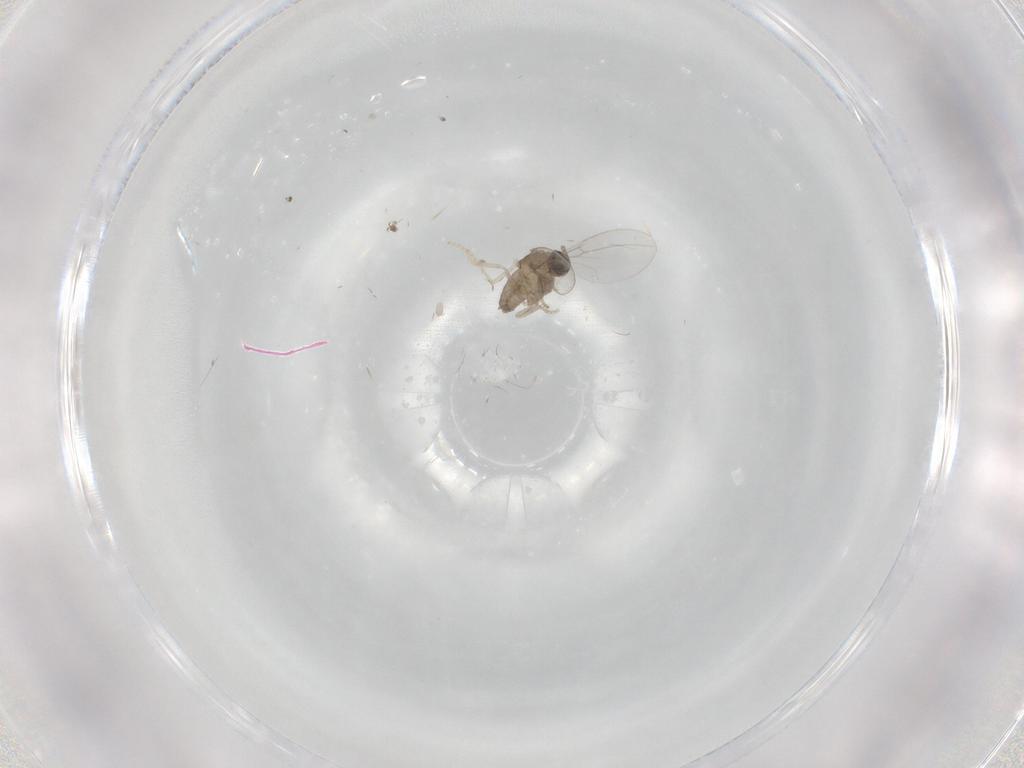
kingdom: Animalia
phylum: Arthropoda
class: Insecta
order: Diptera
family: Cecidomyiidae
